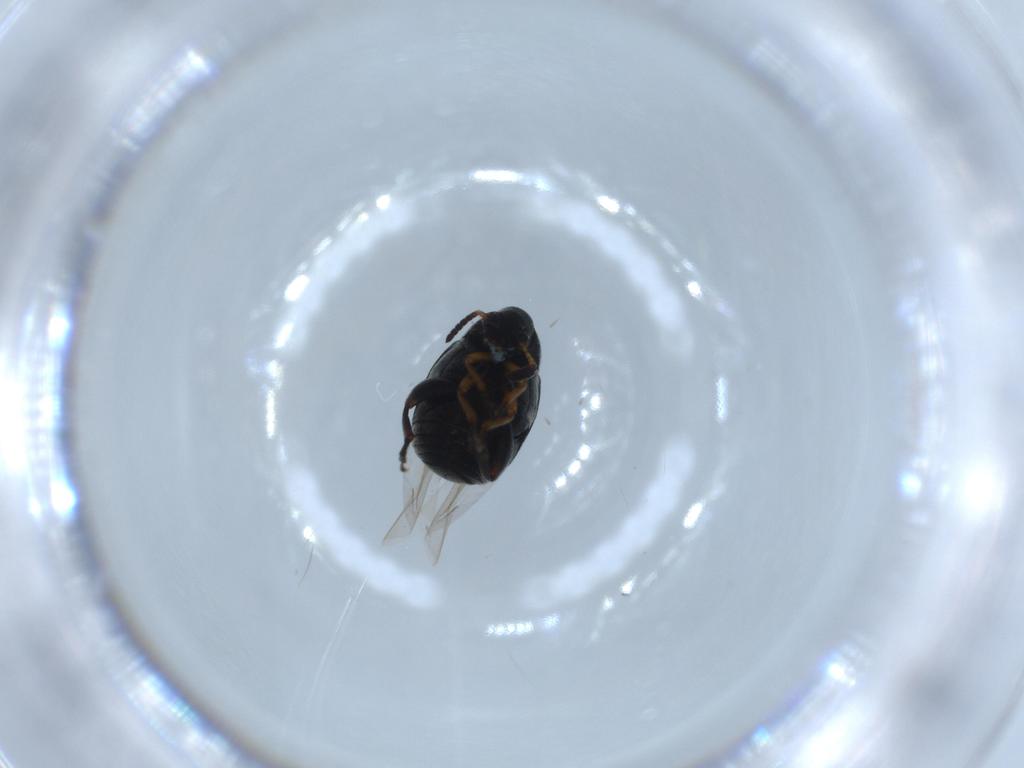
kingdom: Animalia
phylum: Arthropoda
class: Insecta
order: Coleoptera
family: Chrysomelidae
